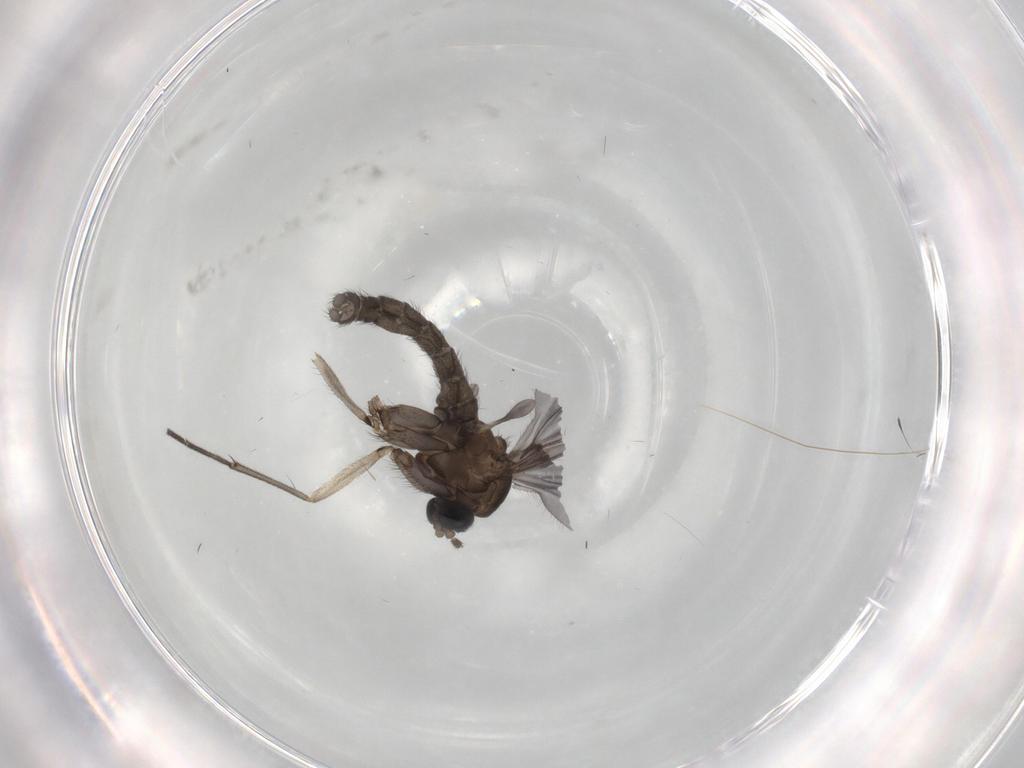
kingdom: Animalia
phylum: Arthropoda
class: Insecta
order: Diptera
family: Sciaridae
